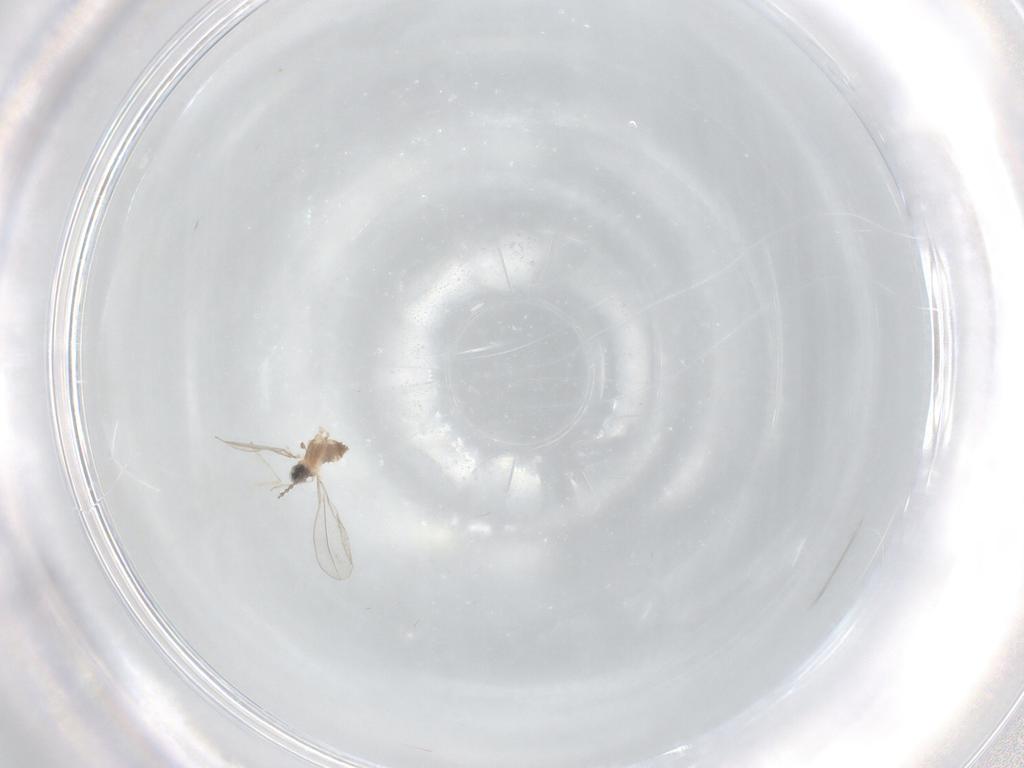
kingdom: Animalia
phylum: Arthropoda
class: Insecta
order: Diptera
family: Cecidomyiidae
